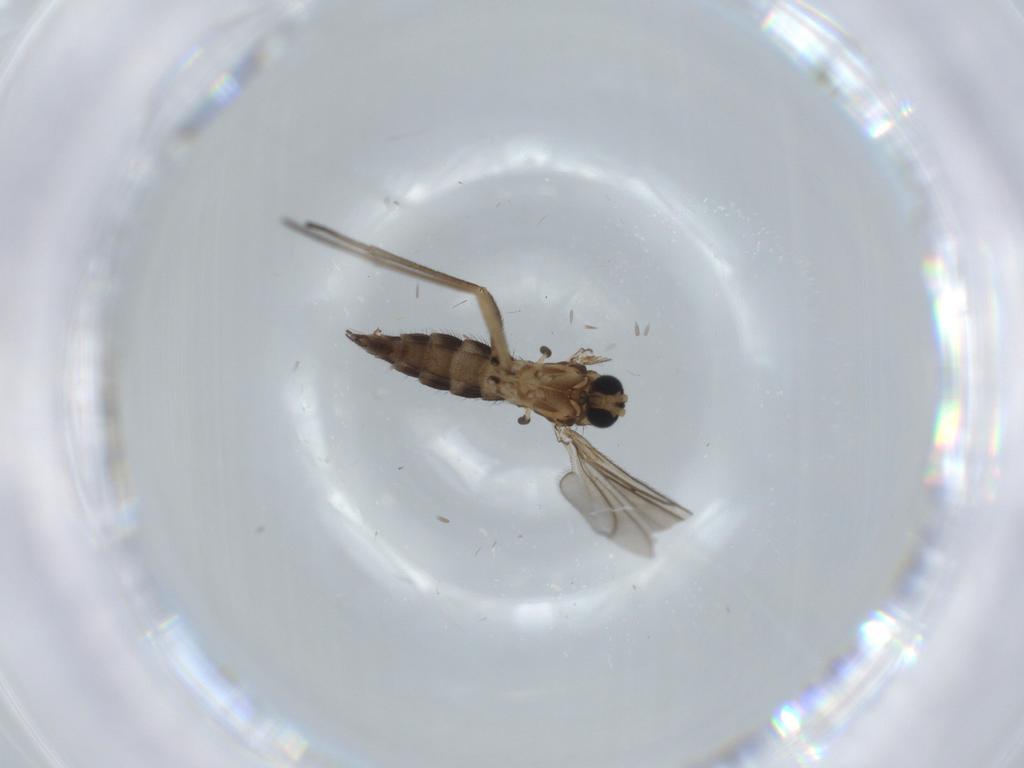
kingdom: Animalia
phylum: Arthropoda
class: Insecta
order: Diptera
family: Sciaridae
